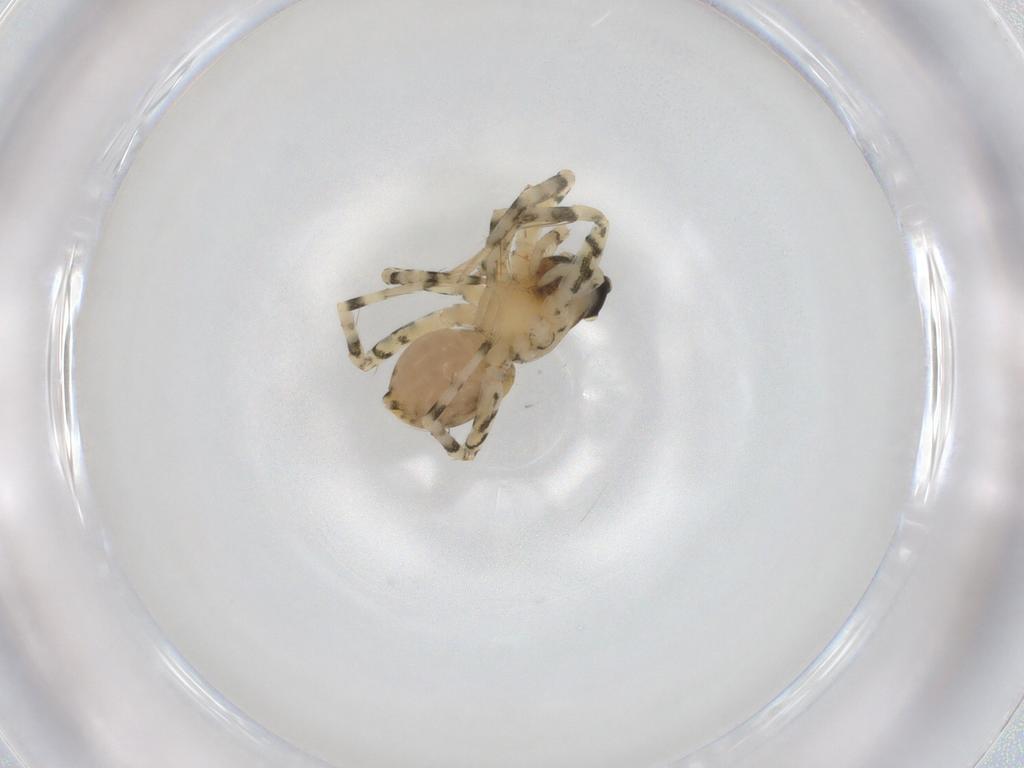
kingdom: Animalia
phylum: Arthropoda
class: Arachnida
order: Araneae
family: Lycosidae
